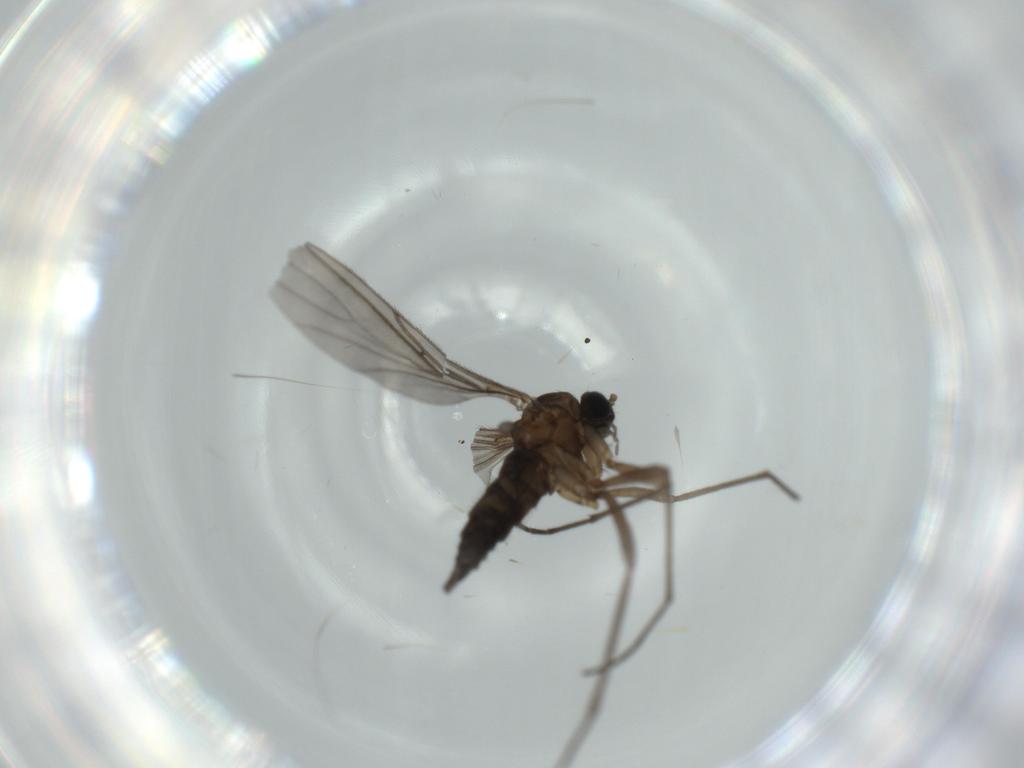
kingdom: Animalia
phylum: Arthropoda
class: Insecta
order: Diptera
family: Sciaridae
